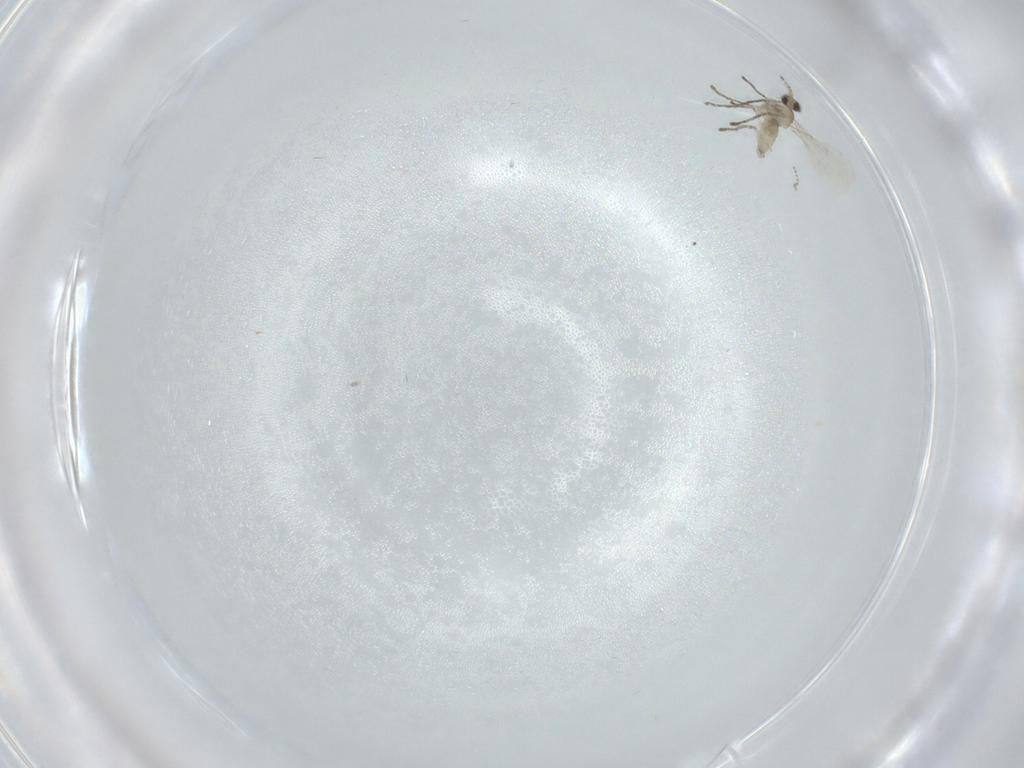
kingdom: Animalia
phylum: Arthropoda
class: Insecta
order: Diptera
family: Cecidomyiidae
